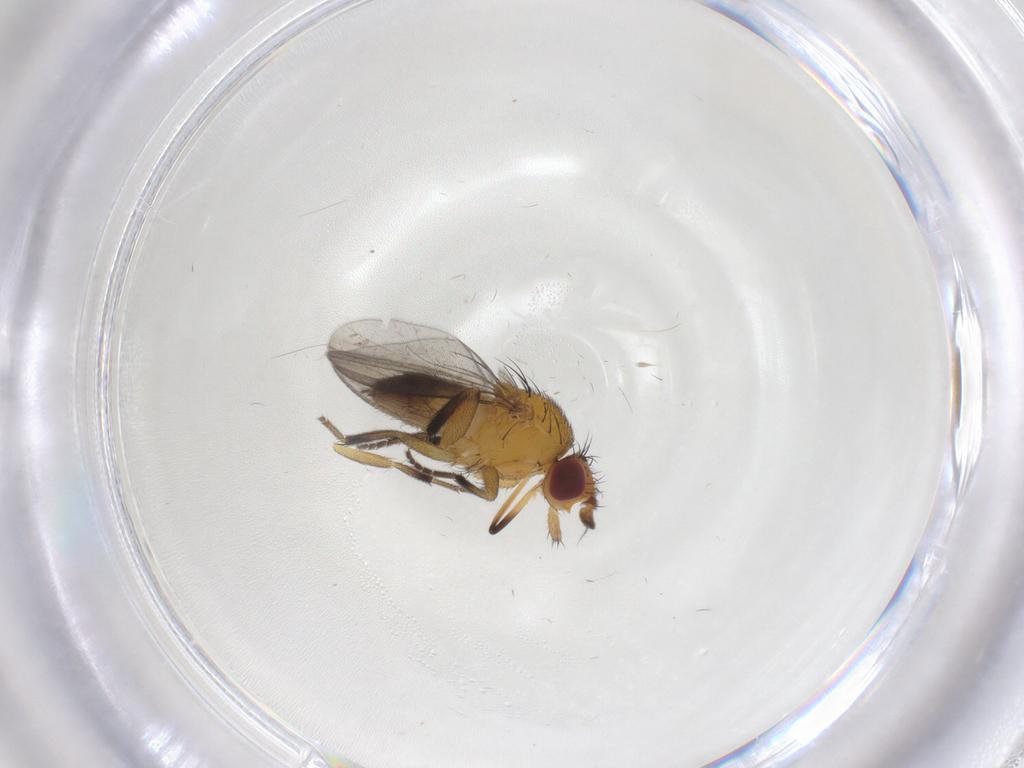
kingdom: Animalia
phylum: Arthropoda
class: Insecta
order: Diptera
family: Milichiidae
